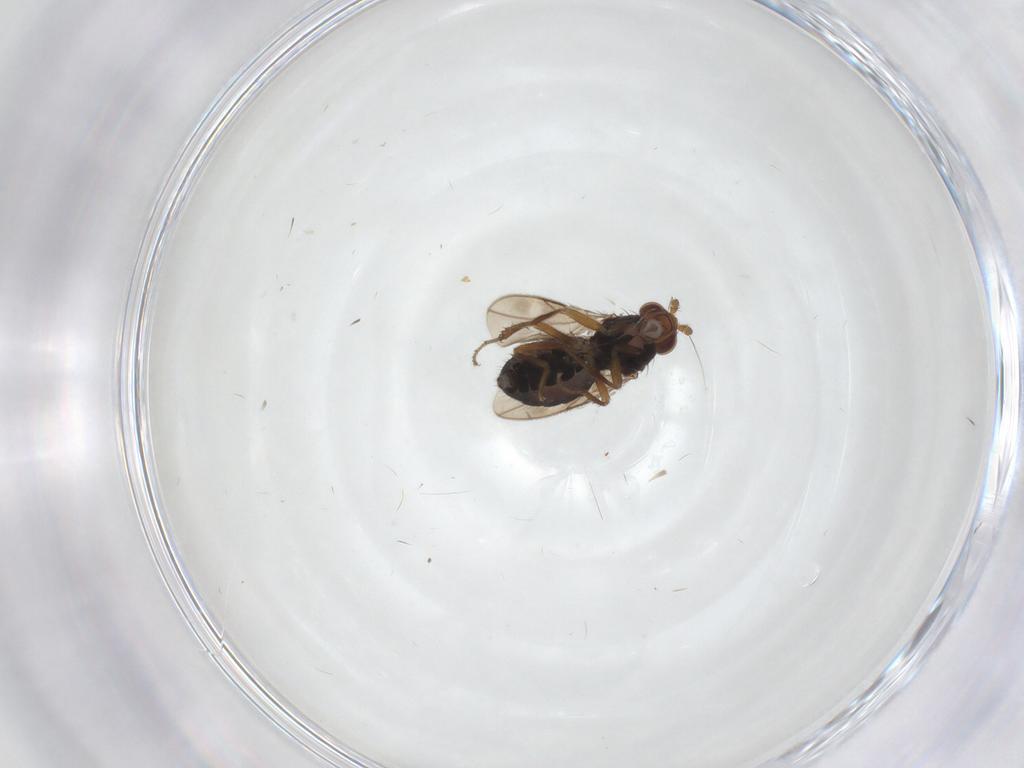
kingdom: Animalia
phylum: Arthropoda
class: Insecta
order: Diptera
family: Sphaeroceridae
